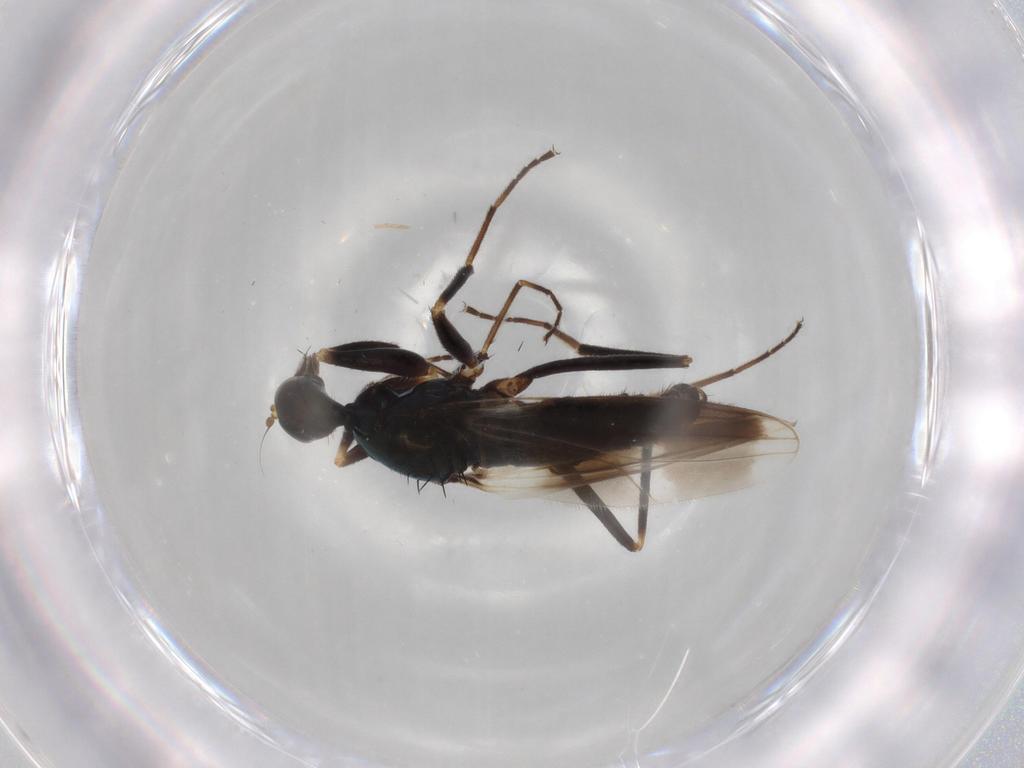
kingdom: Animalia
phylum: Arthropoda
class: Insecta
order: Diptera
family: Hybotidae
